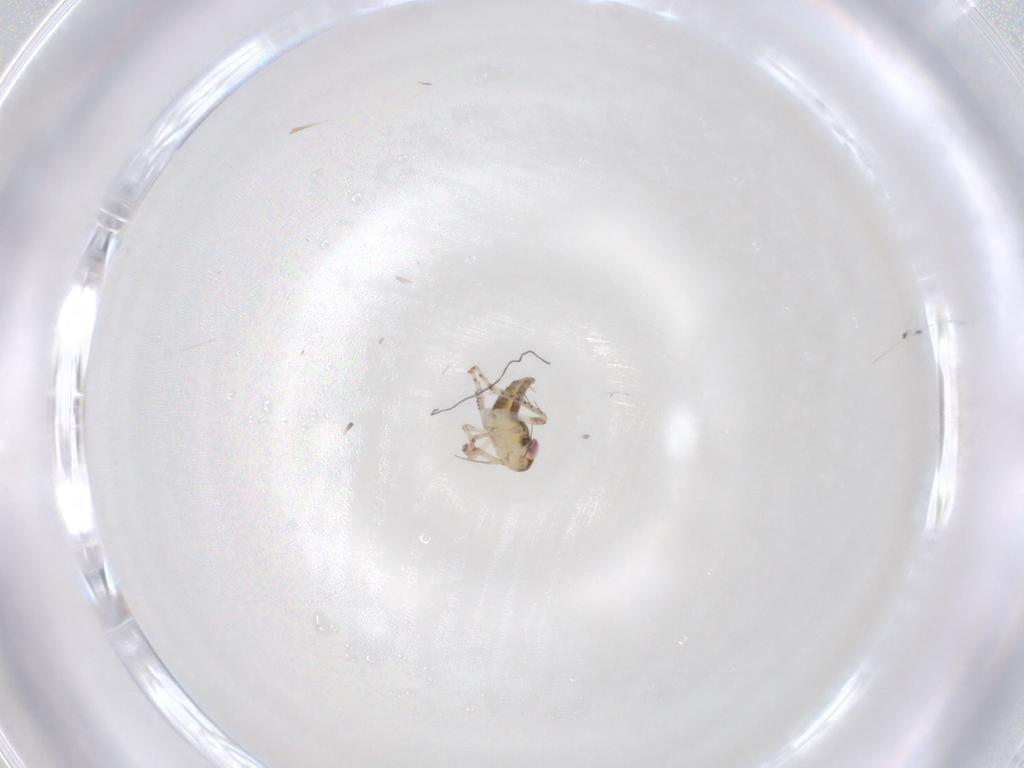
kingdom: Animalia
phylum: Arthropoda
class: Insecta
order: Hemiptera
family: Cicadellidae
